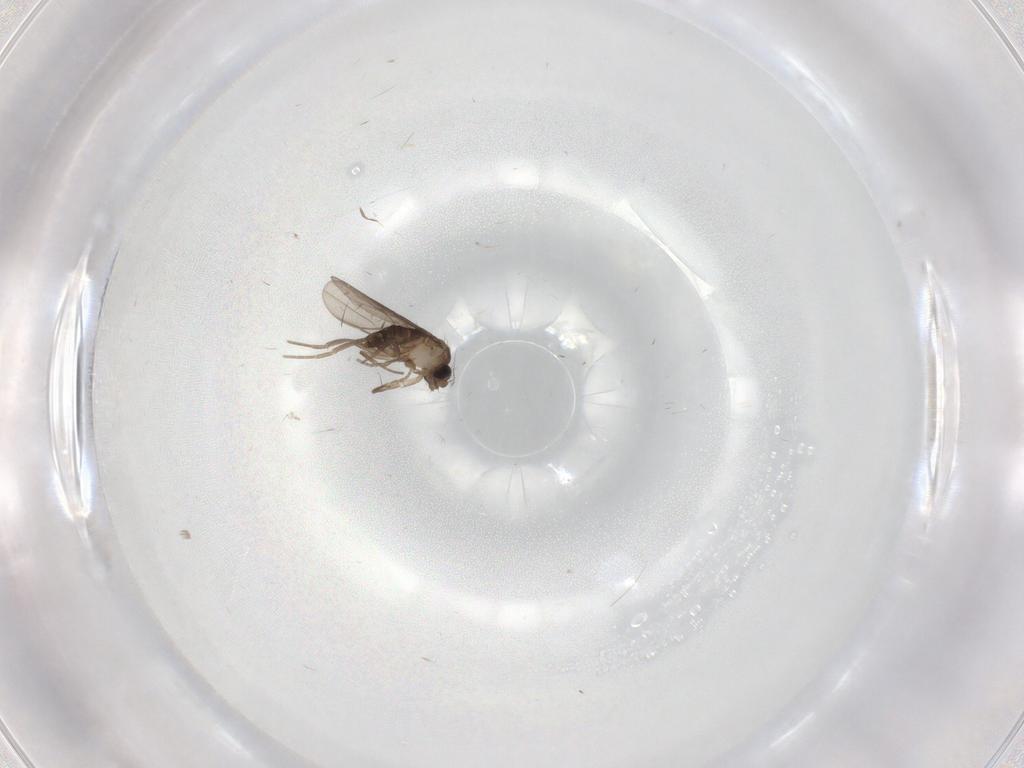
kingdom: Animalia
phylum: Arthropoda
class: Insecta
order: Diptera
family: Phoridae
